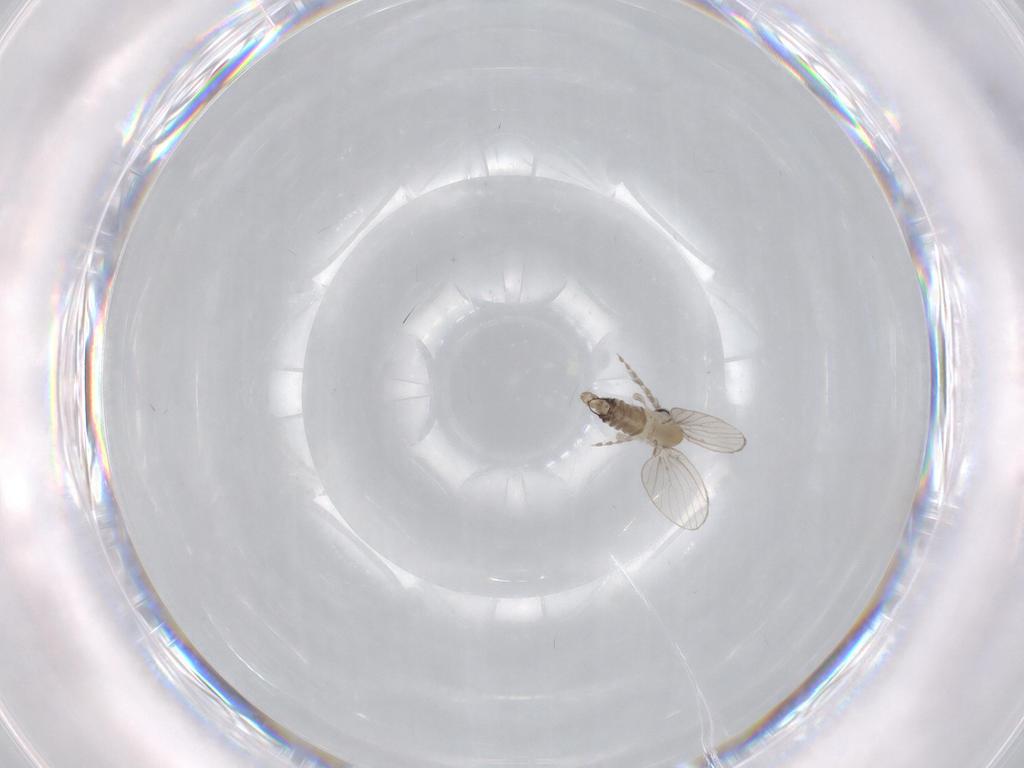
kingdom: Animalia
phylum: Arthropoda
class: Insecta
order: Diptera
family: Psychodidae
